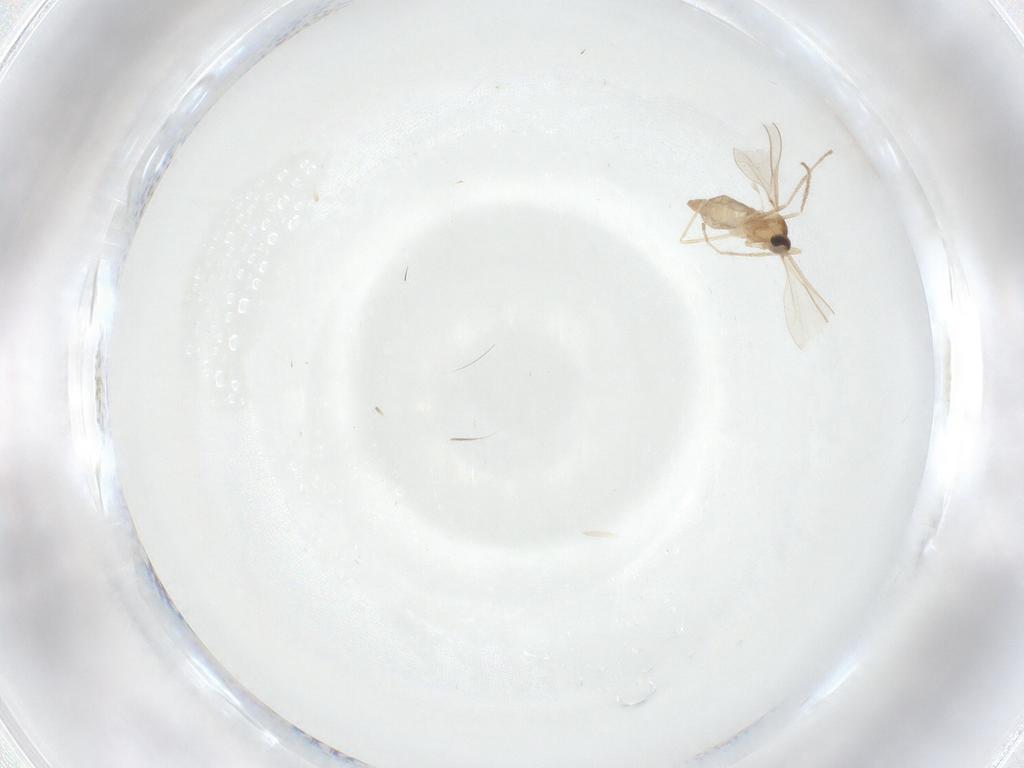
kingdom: Animalia
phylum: Arthropoda
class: Insecta
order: Diptera
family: Cecidomyiidae
